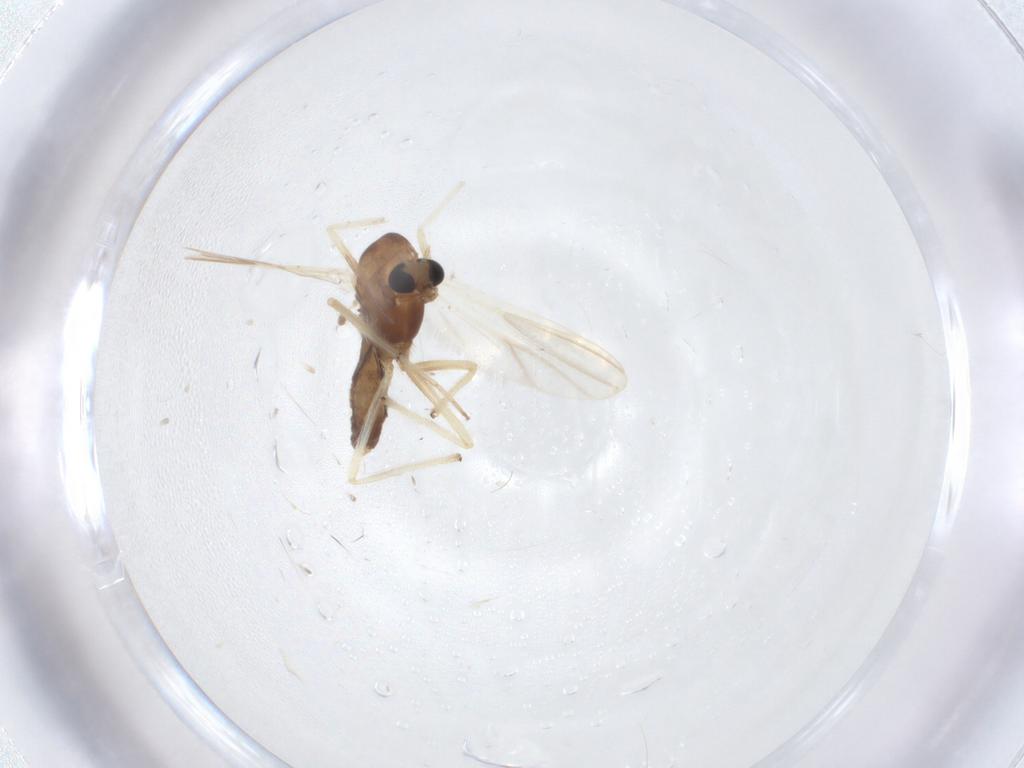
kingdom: Animalia
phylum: Arthropoda
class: Insecta
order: Diptera
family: Chironomidae
